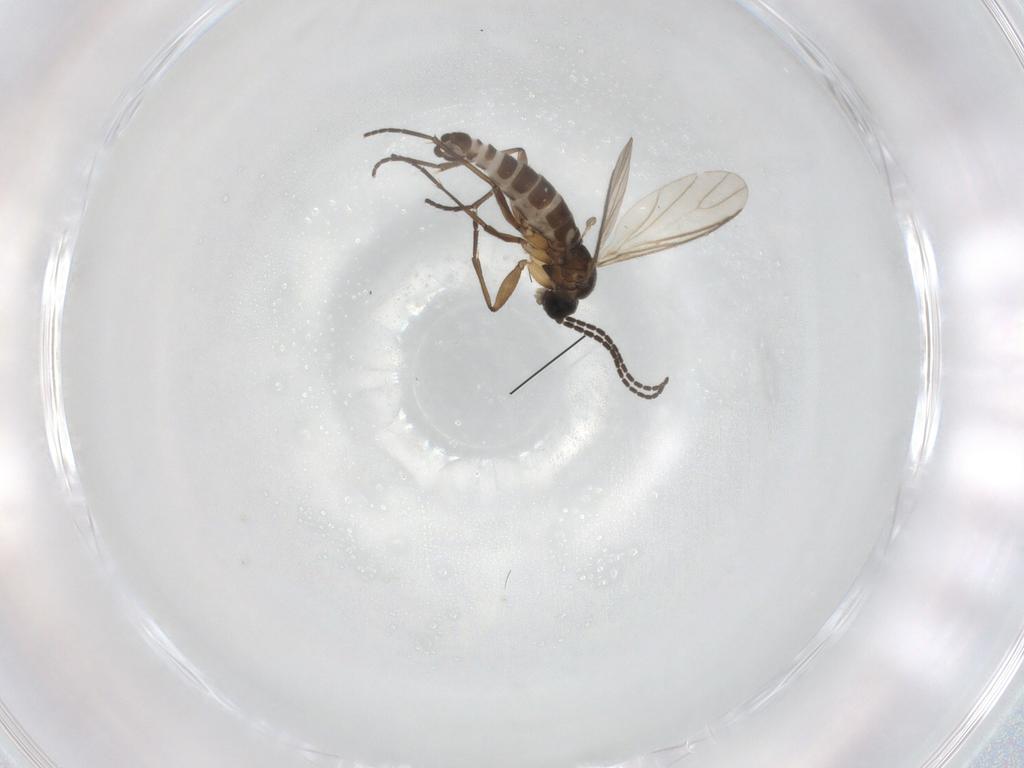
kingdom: Animalia
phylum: Arthropoda
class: Insecta
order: Diptera
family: Sciaridae
